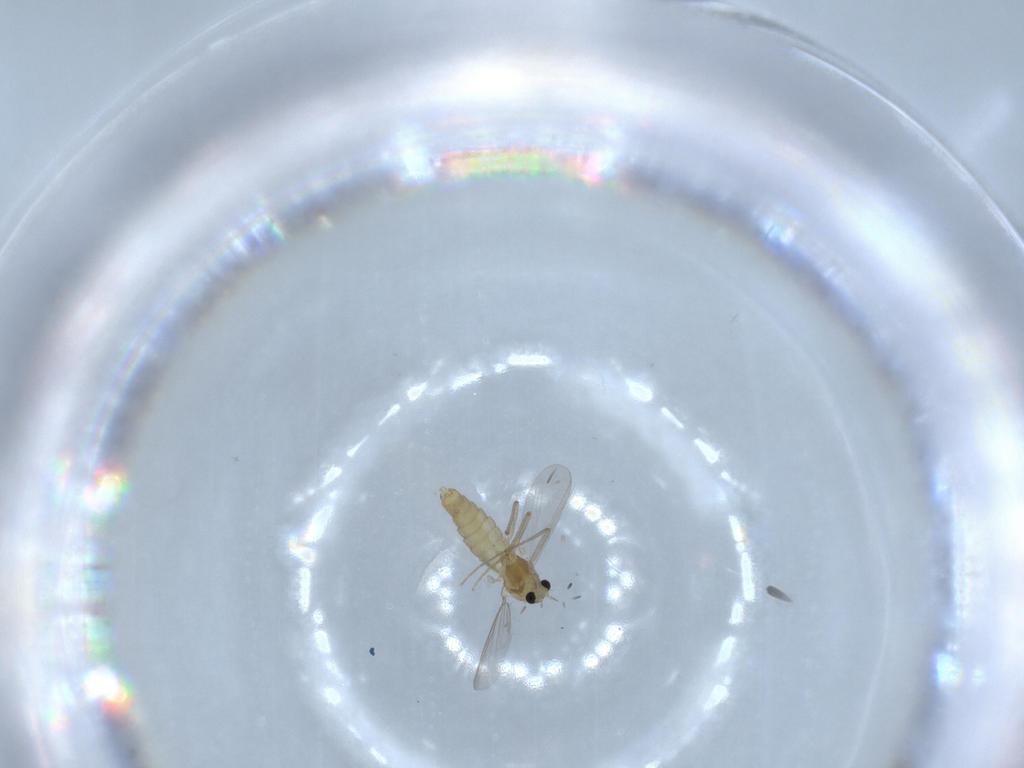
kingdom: Animalia
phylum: Arthropoda
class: Insecta
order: Diptera
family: Chironomidae
